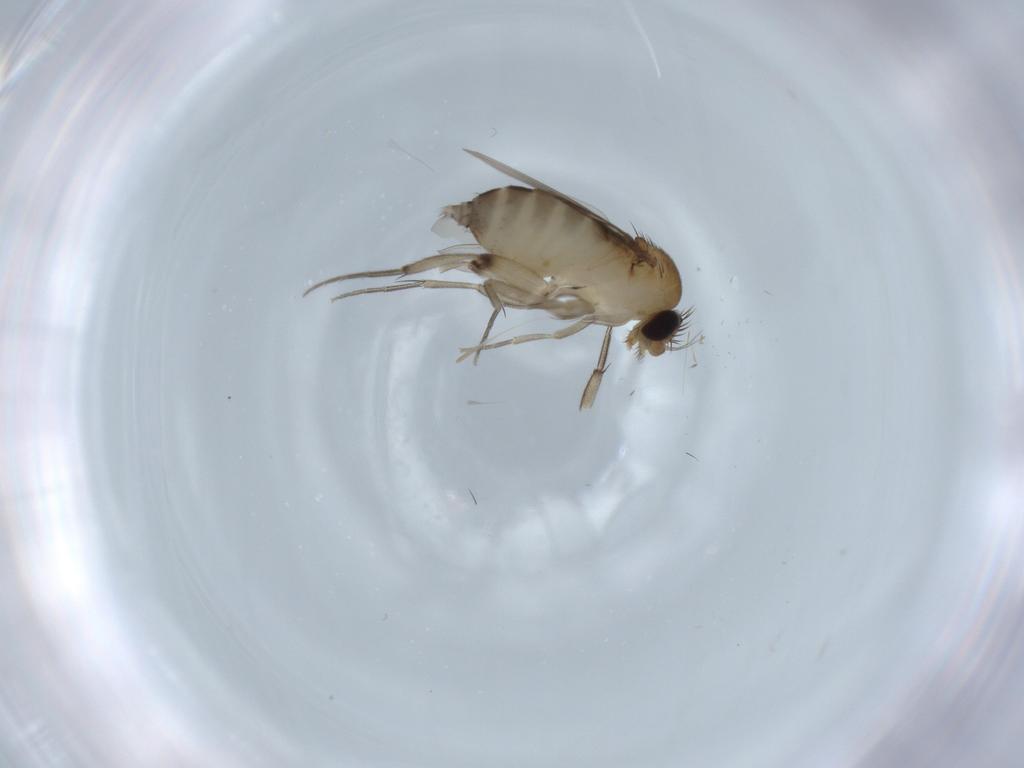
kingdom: Animalia
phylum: Arthropoda
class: Insecta
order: Diptera
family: Phoridae
